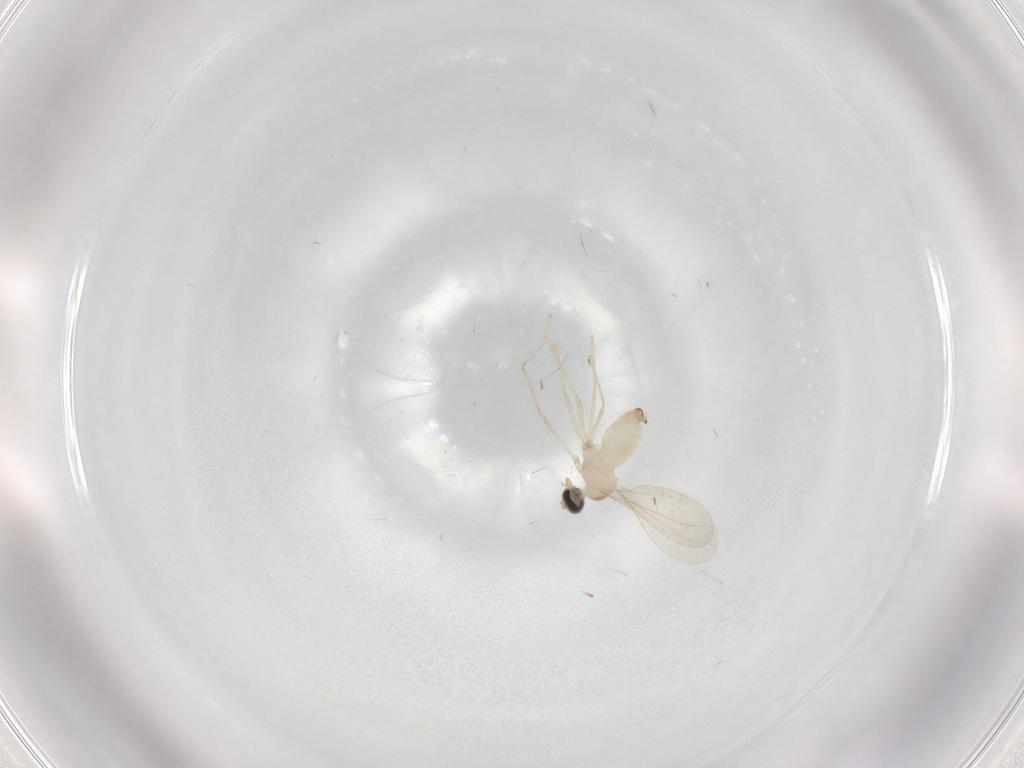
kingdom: Animalia
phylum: Arthropoda
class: Insecta
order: Diptera
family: Cecidomyiidae
